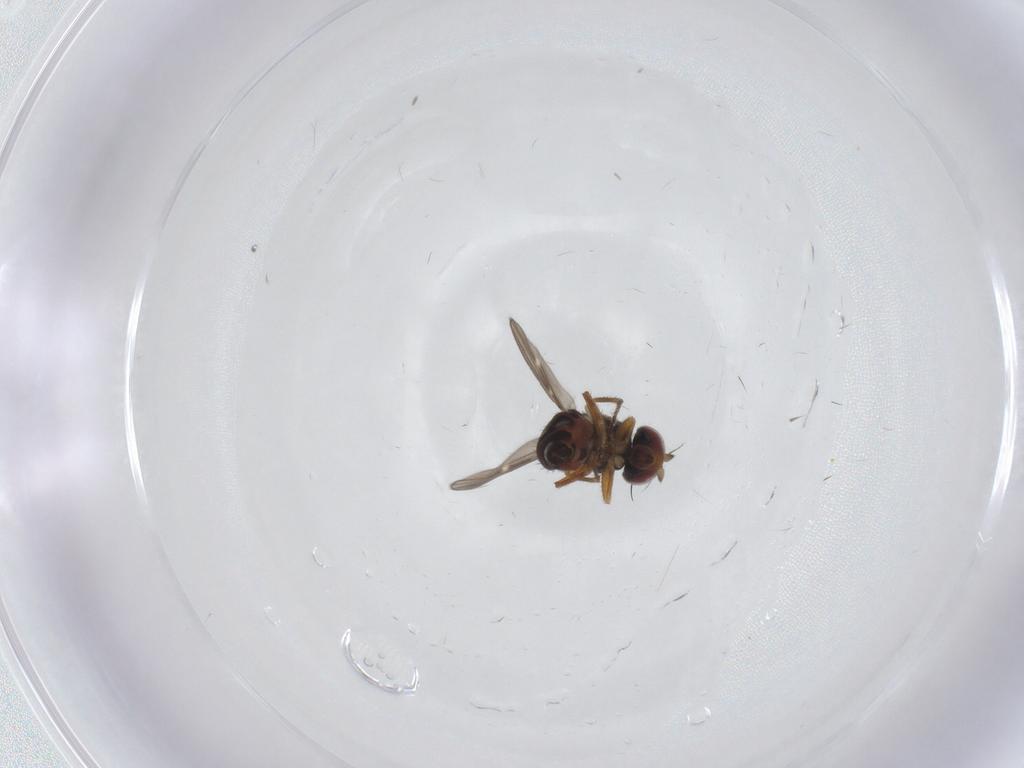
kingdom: Animalia
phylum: Arthropoda
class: Insecta
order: Diptera
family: Ephydridae
